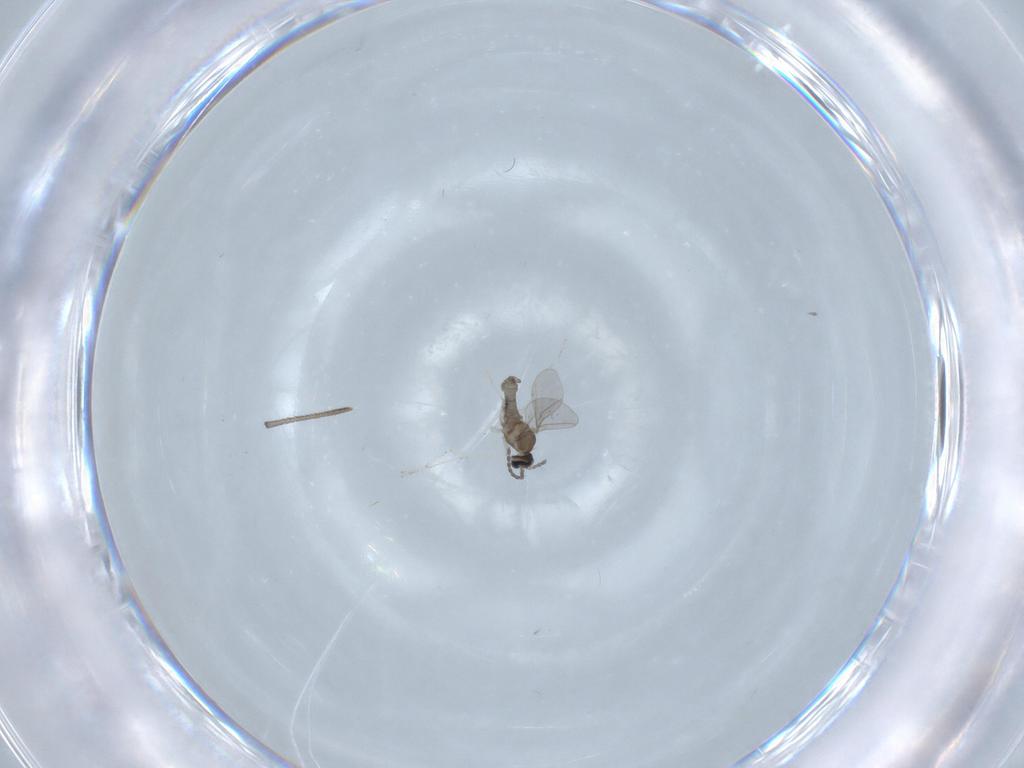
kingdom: Animalia
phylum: Arthropoda
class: Insecta
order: Diptera
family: Cecidomyiidae
